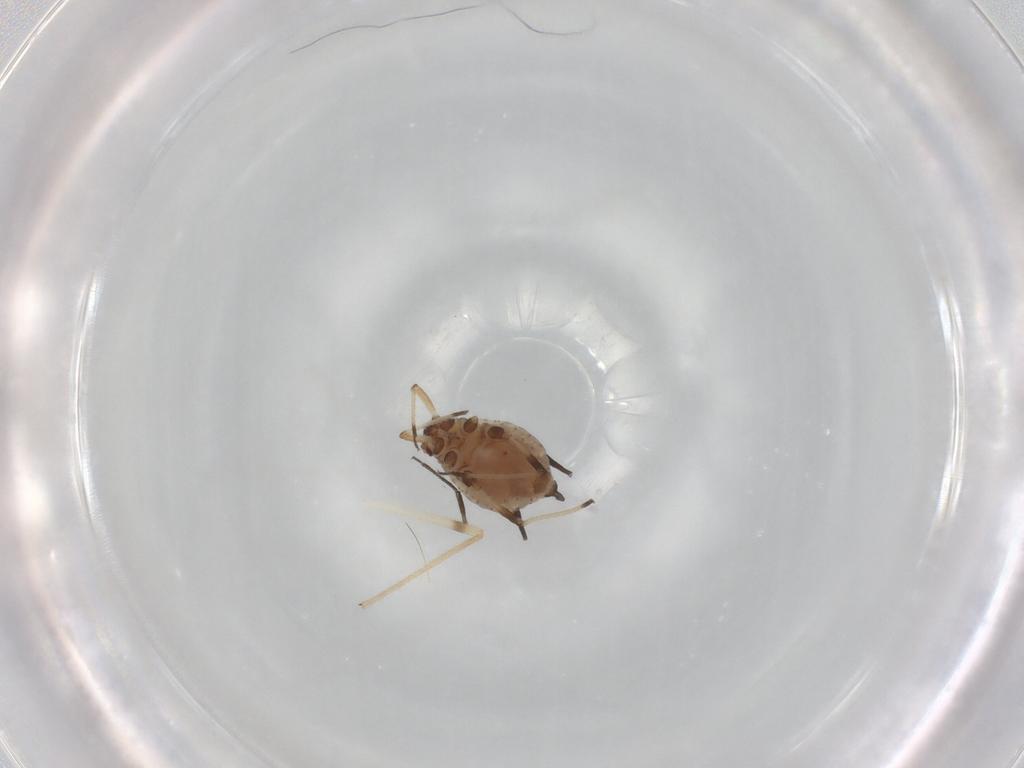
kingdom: Animalia
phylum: Arthropoda
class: Insecta
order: Hemiptera
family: Aphididae
